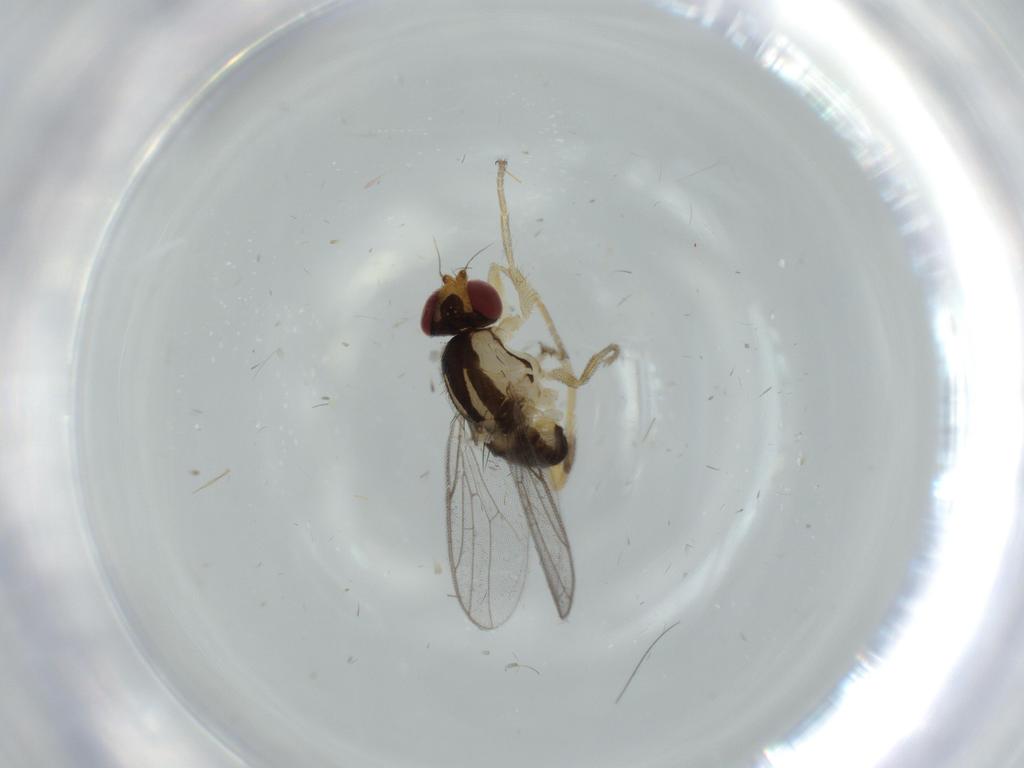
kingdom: Animalia
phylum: Arthropoda
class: Insecta
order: Diptera
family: Chloropidae
